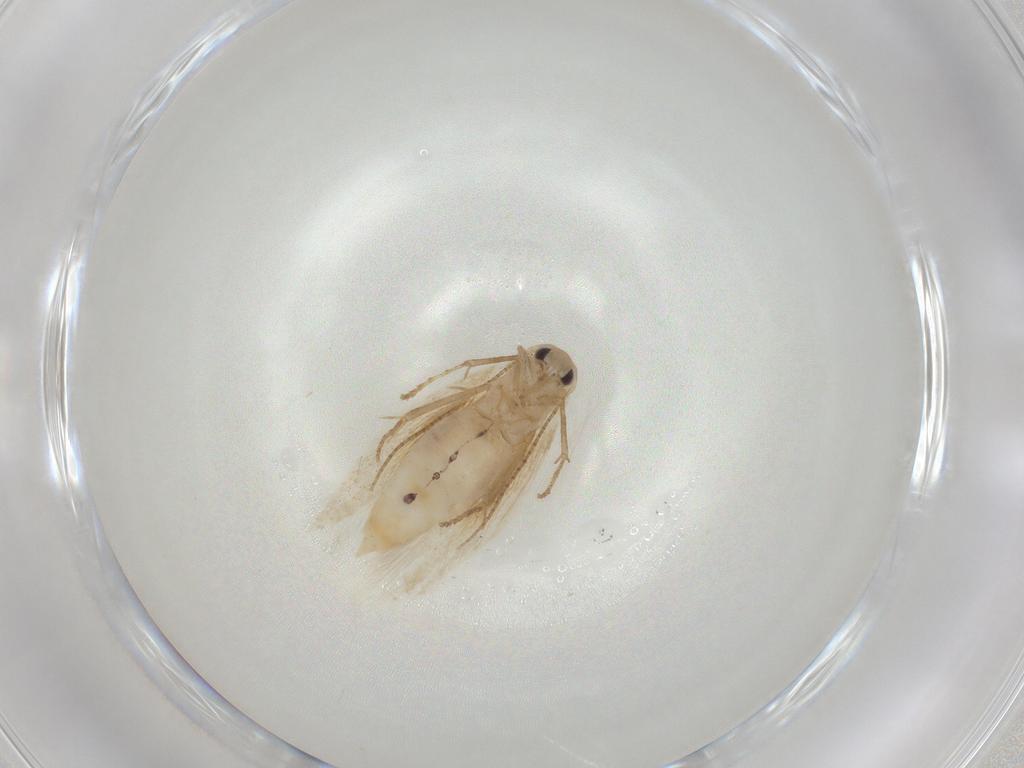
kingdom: Animalia
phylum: Arthropoda
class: Insecta
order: Lepidoptera
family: Bucculatricidae
